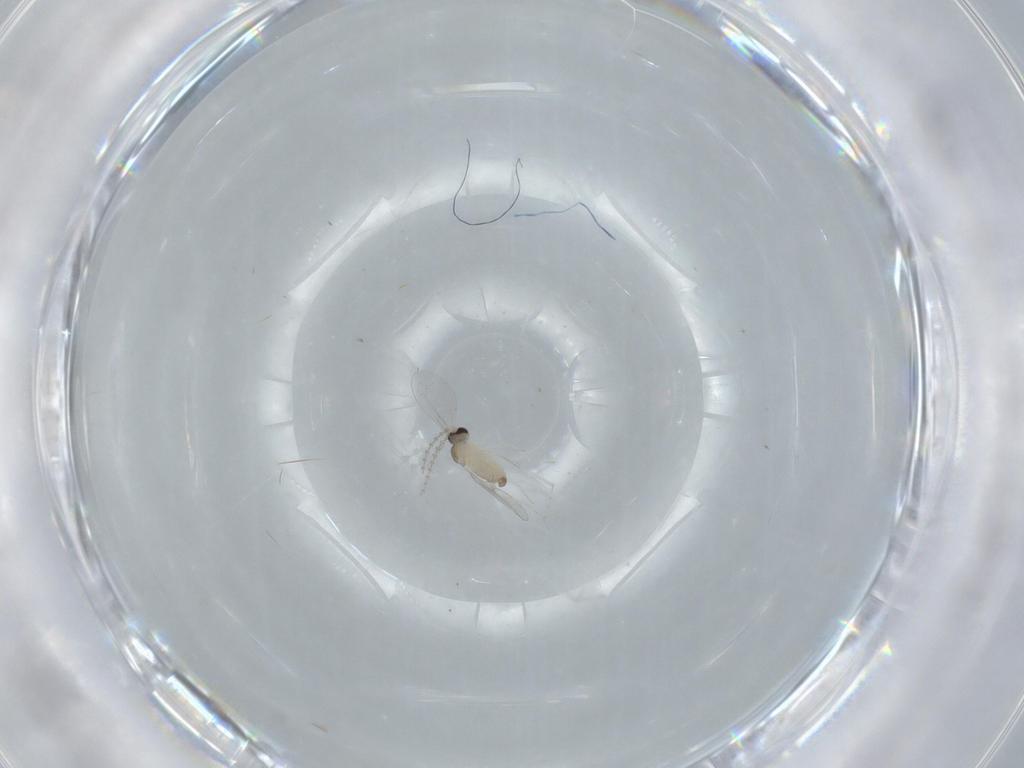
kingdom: Animalia
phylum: Arthropoda
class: Insecta
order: Diptera
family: Cecidomyiidae
